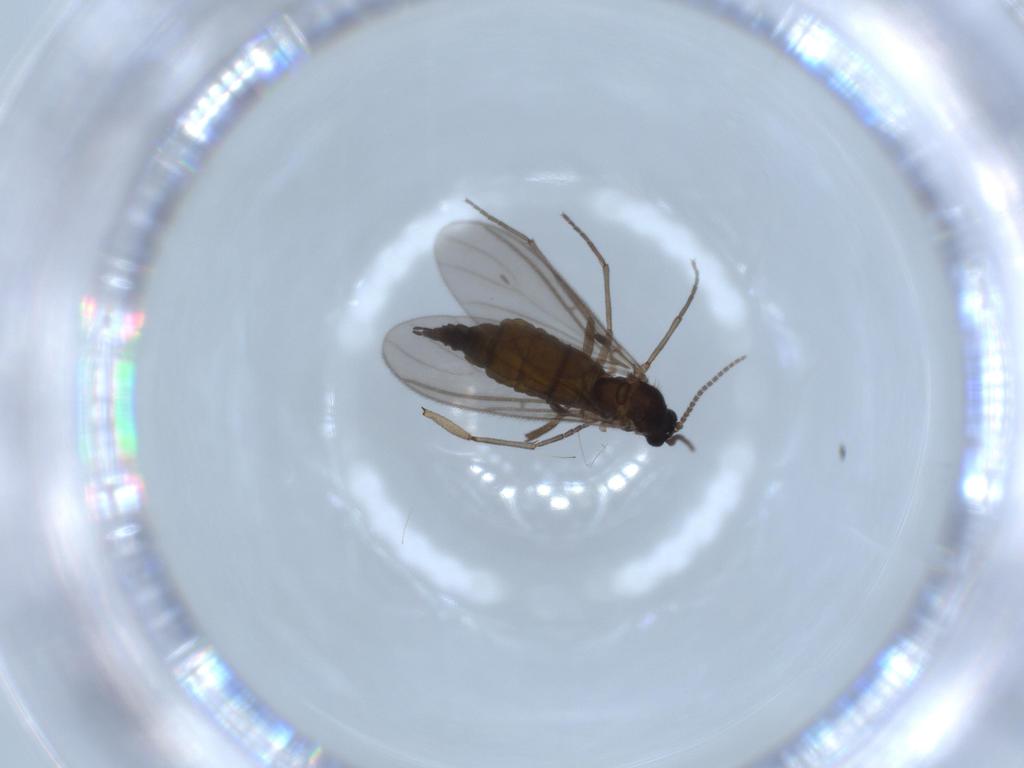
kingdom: Animalia
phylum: Arthropoda
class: Insecta
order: Diptera
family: Sciaridae
